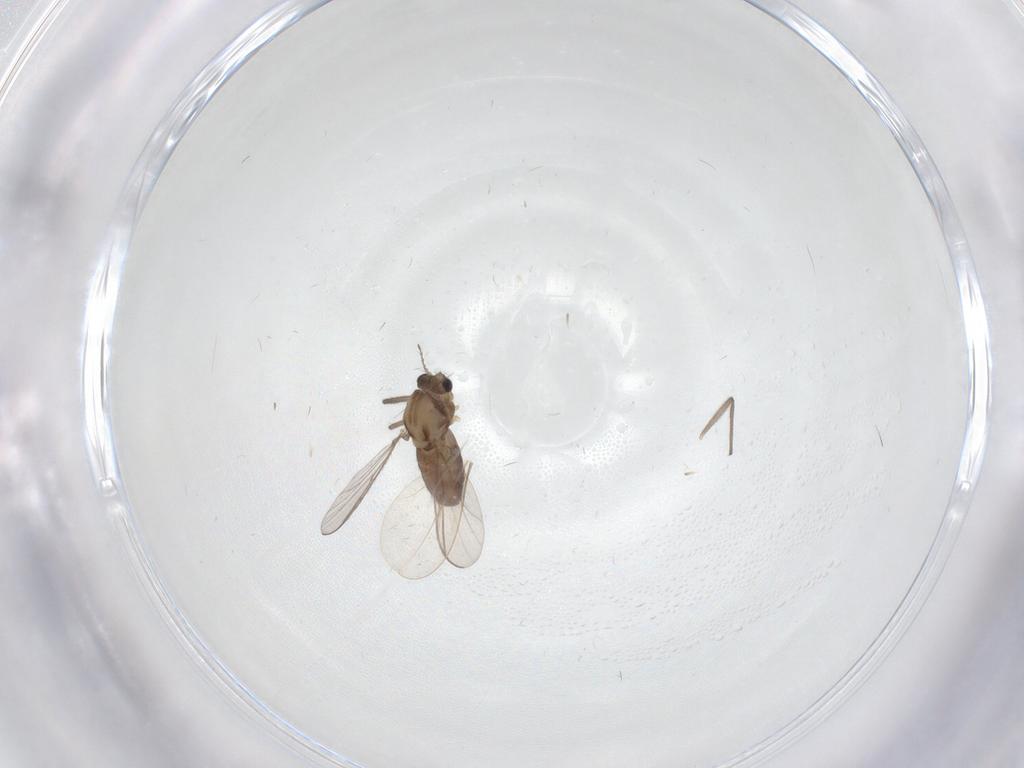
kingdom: Animalia
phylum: Arthropoda
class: Insecta
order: Diptera
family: Chironomidae
